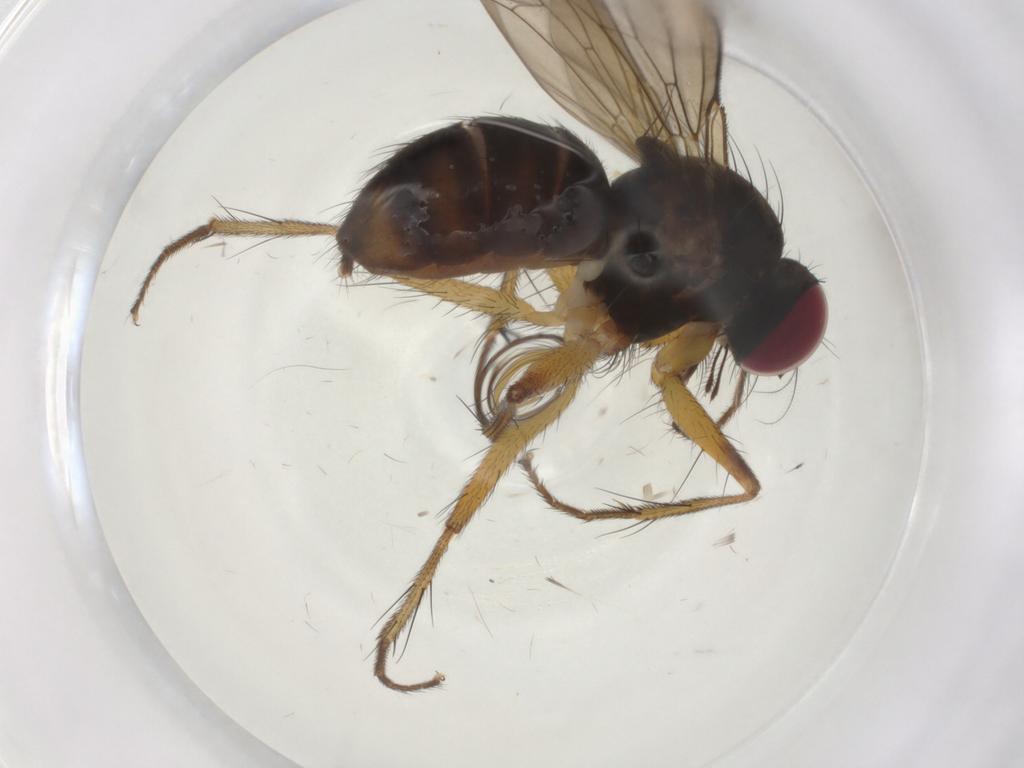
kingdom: Animalia
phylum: Arthropoda
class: Insecta
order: Diptera
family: Anthomyiidae
